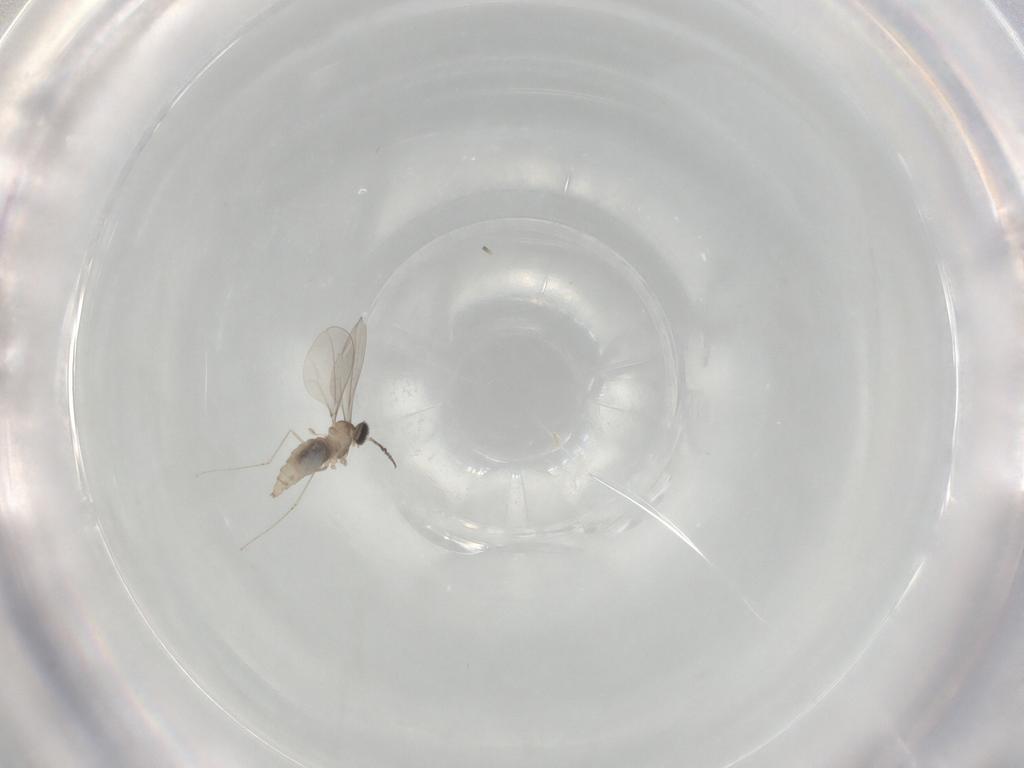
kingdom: Animalia
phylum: Arthropoda
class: Insecta
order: Diptera
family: Cecidomyiidae
